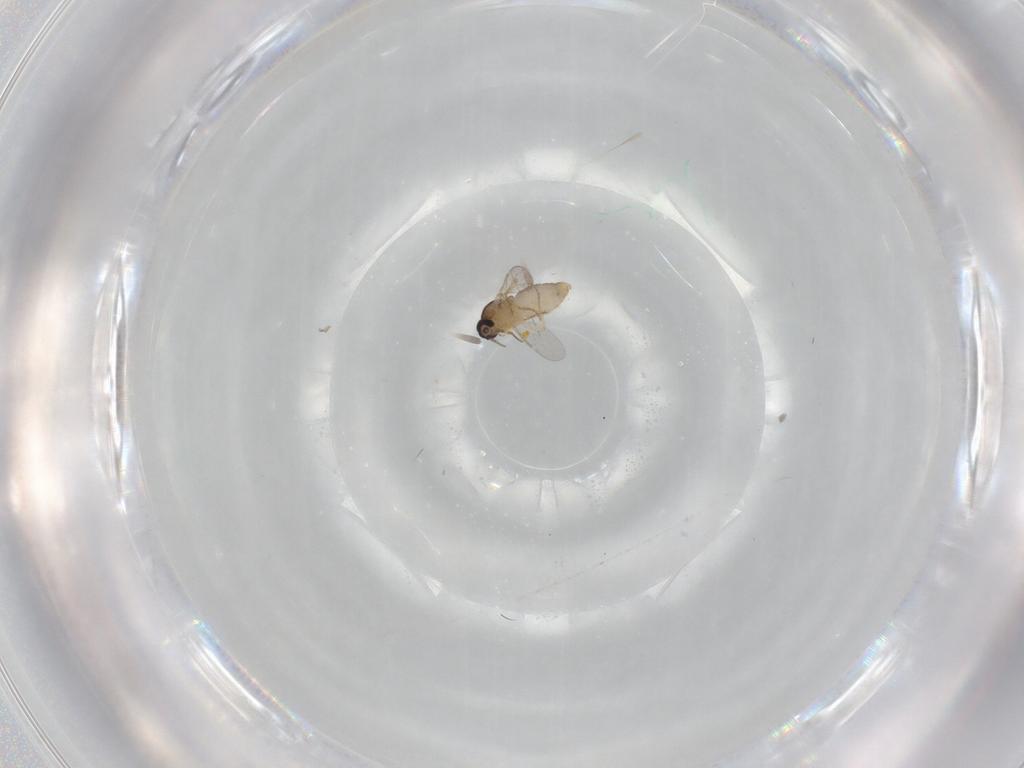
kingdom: Animalia
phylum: Arthropoda
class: Insecta
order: Diptera
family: Ceratopogonidae
